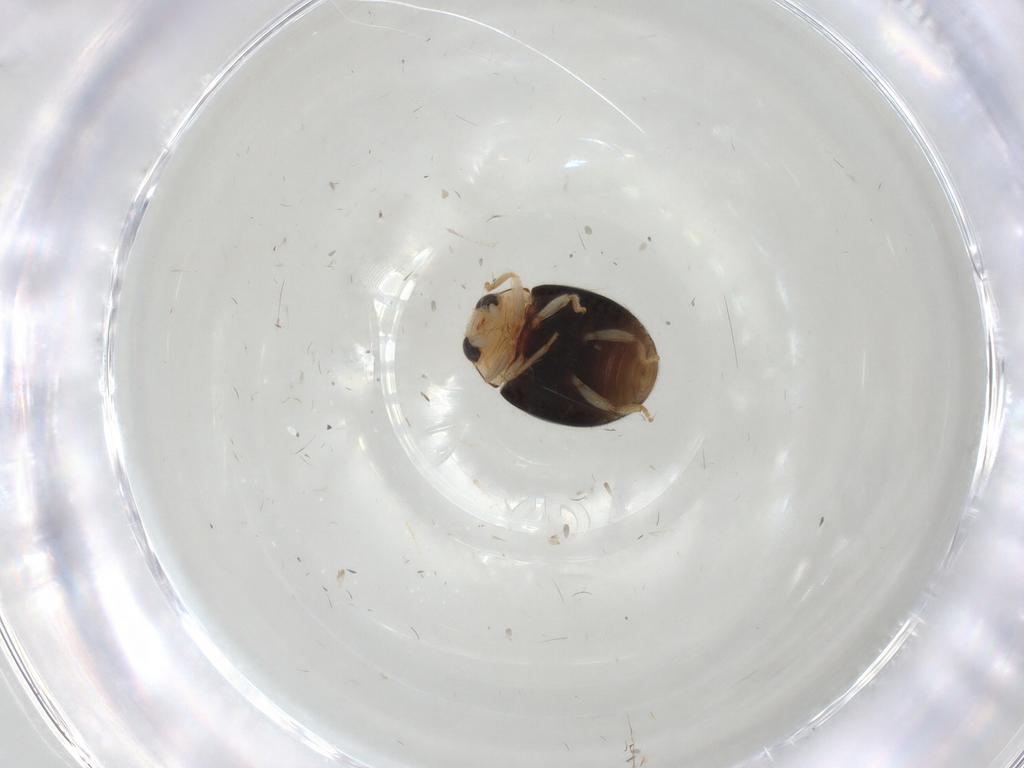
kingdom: Animalia
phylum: Arthropoda
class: Insecta
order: Coleoptera
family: Coccinellidae
